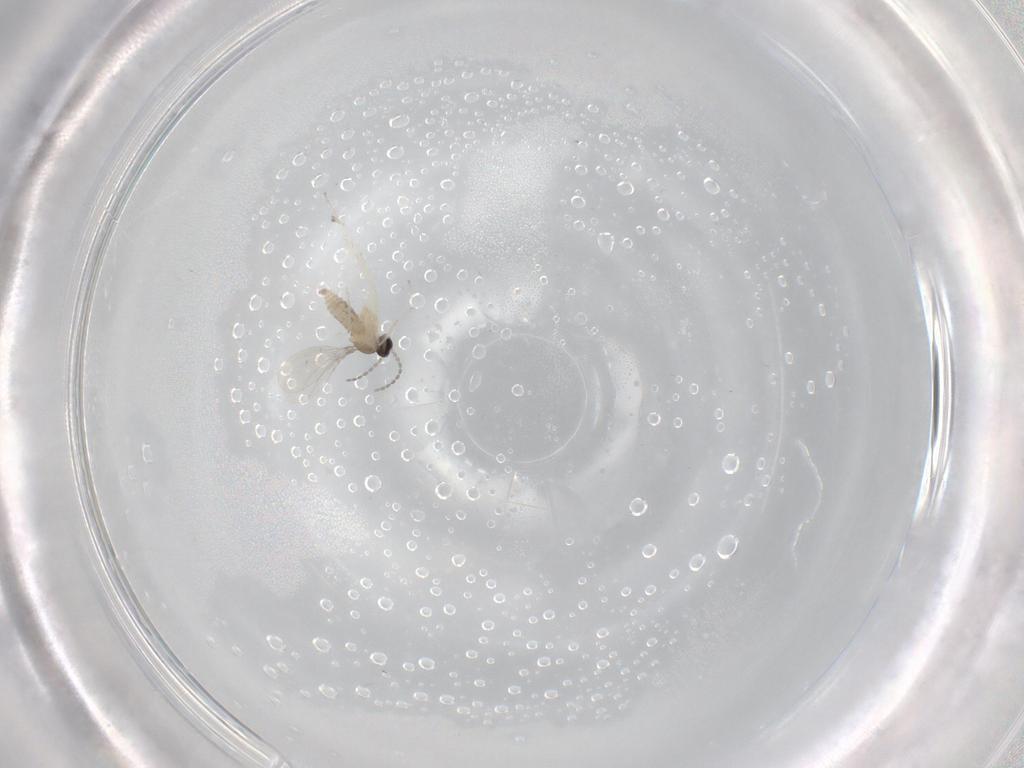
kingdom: Animalia
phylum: Arthropoda
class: Insecta
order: Diptera
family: Cecidomyiidae
